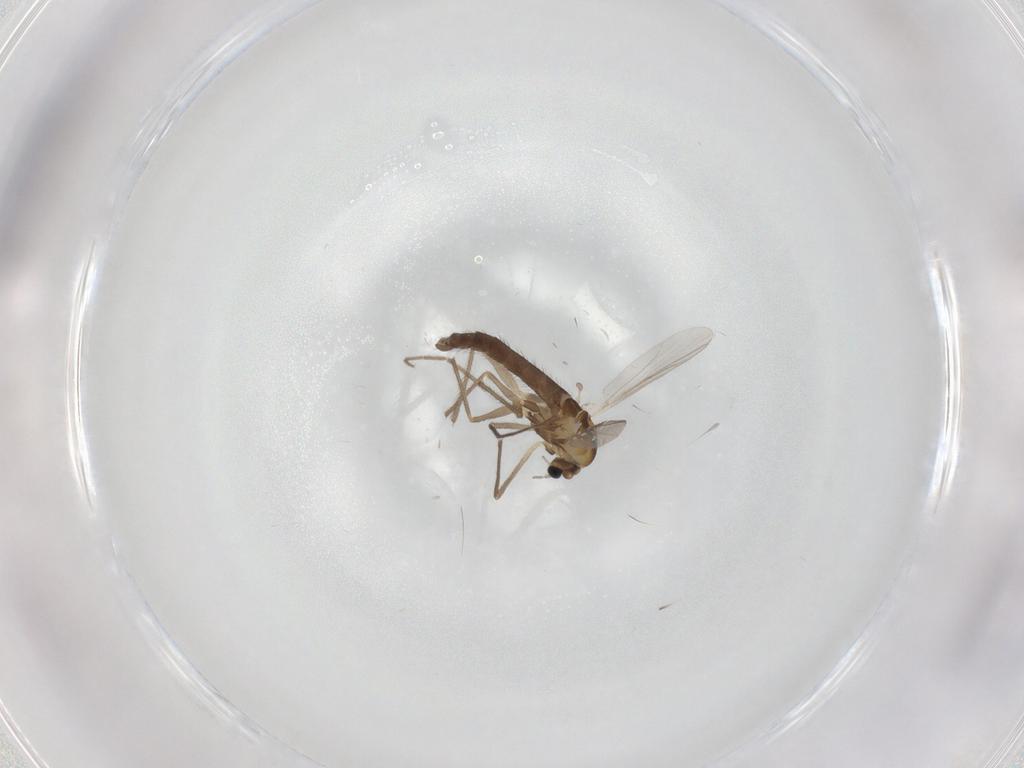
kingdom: Animalia
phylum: Arthropoda
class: Insecta
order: Diptera
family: Chironomidae
